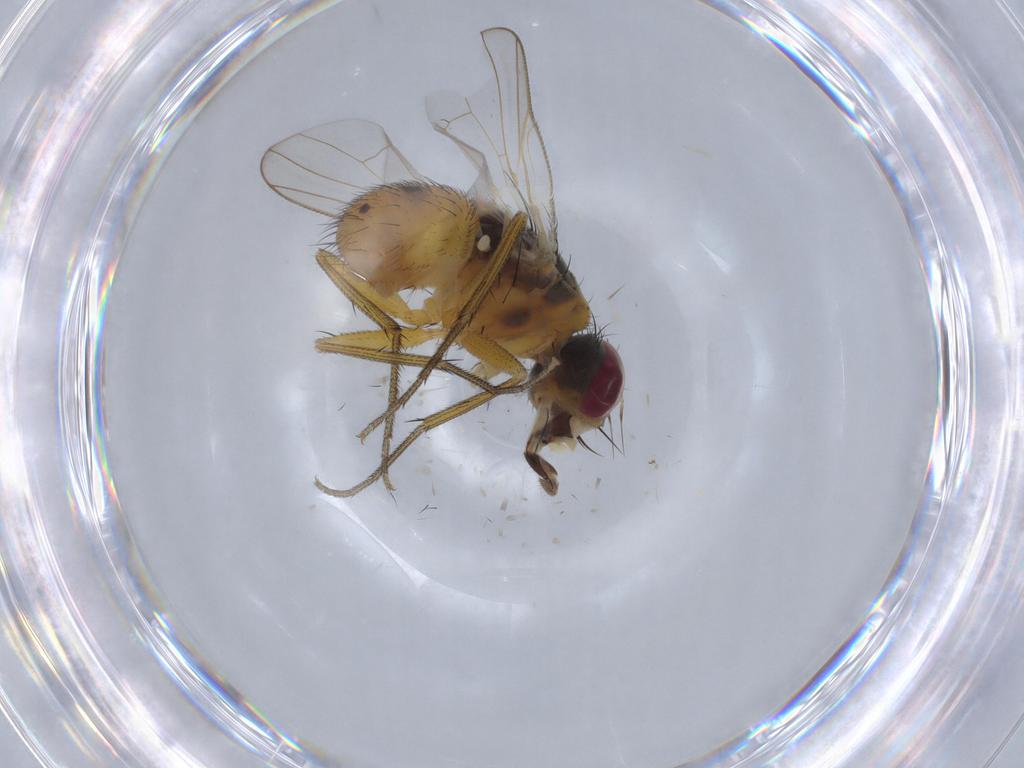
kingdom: Animalia
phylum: Arthropoda
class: Insecta
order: Diptera
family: Muscidae
